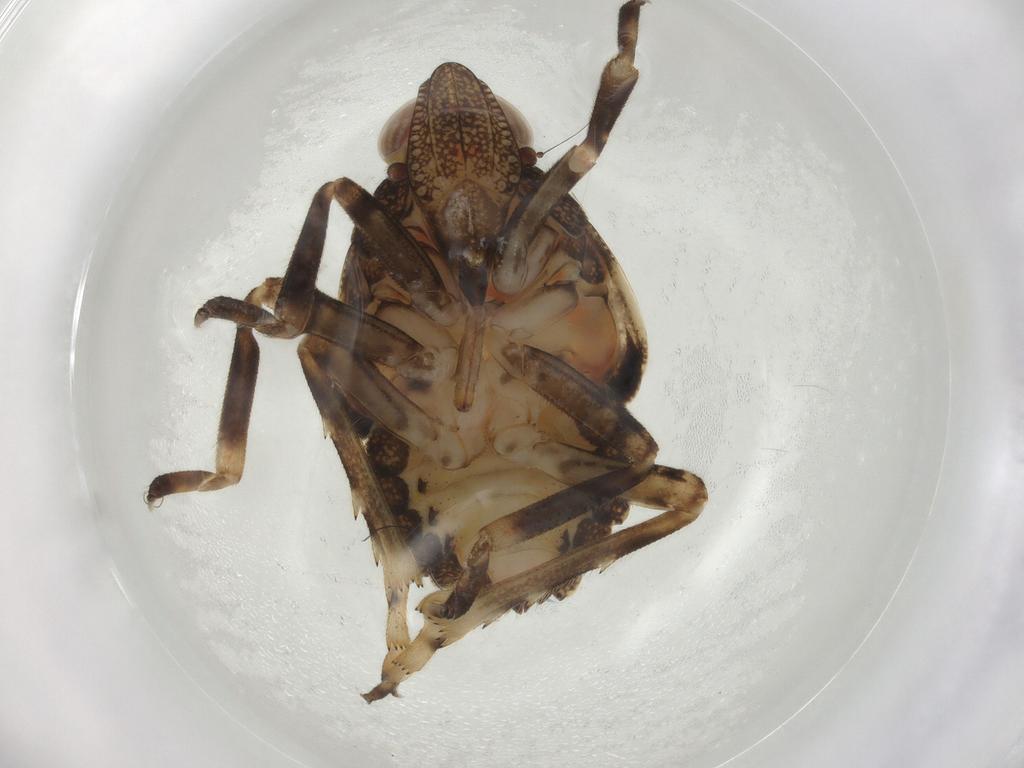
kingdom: Animalia
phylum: Arthropoda
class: Insecta
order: Hemiptera
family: Tropiduchidae
